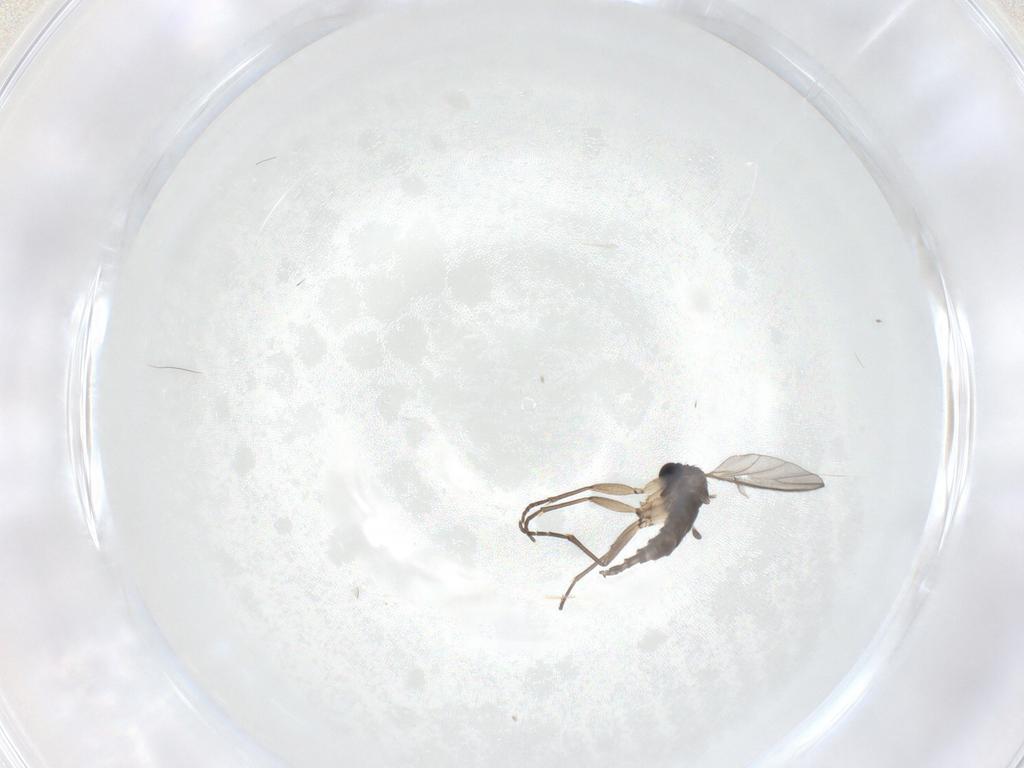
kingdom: Animalia
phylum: Arthropoda
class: Insecta
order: Diptera
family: Sciaridae
